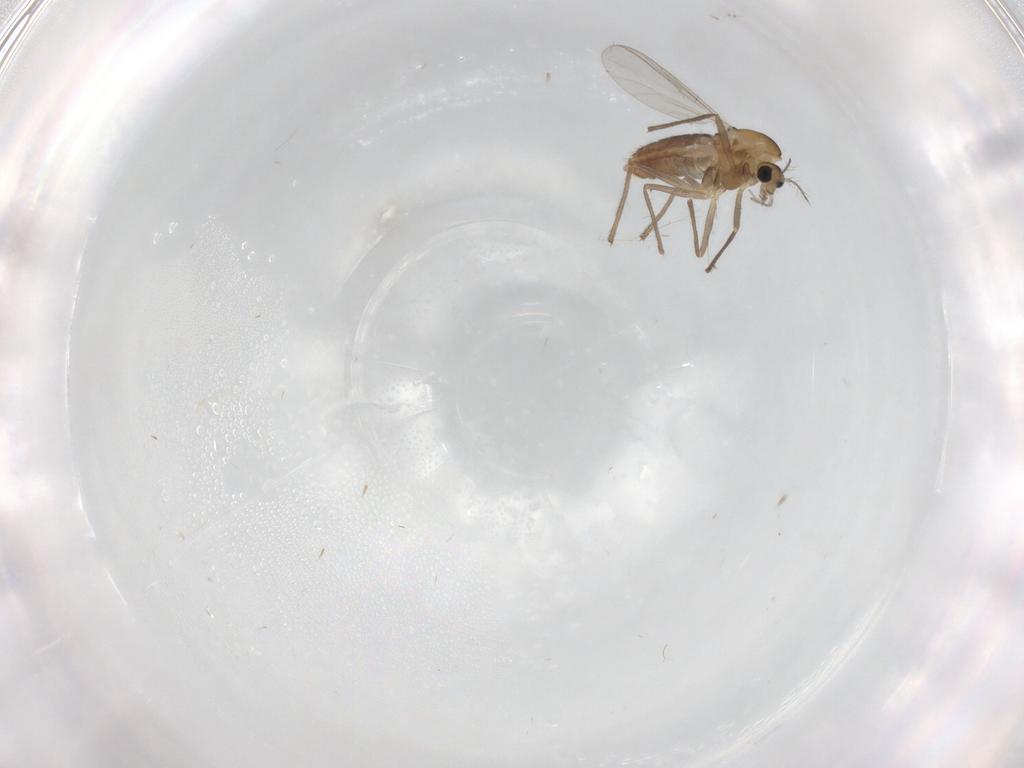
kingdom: Animalia
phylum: Arthropoda
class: Insecta
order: Diptera
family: Chironomidae
